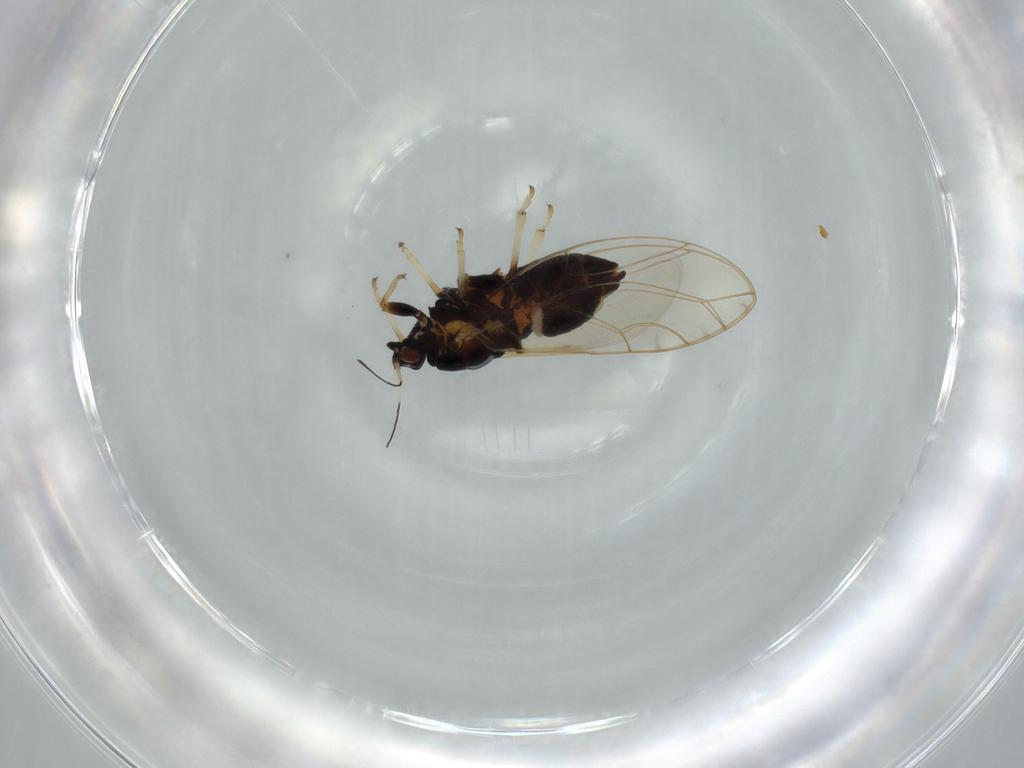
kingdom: Animalia
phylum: Arthropoda
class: Insecta
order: Hemiptera
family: Triozidae
